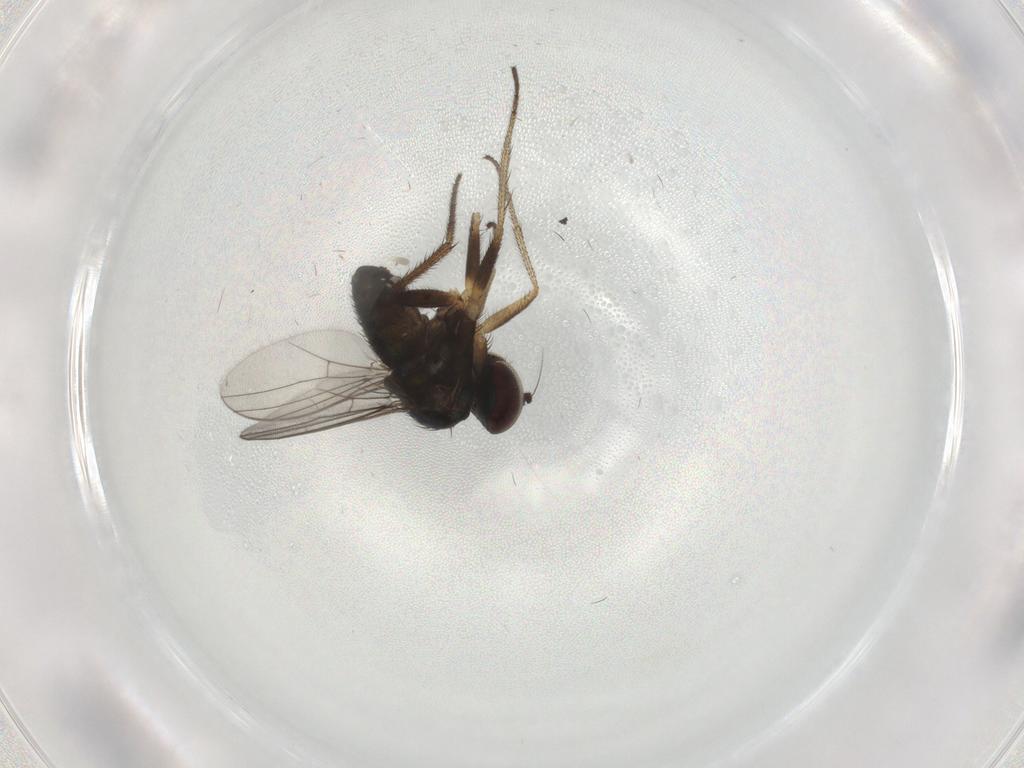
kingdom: Animalia
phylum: Arthropoda
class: Insecta
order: Diptera
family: Dolichopodidae
